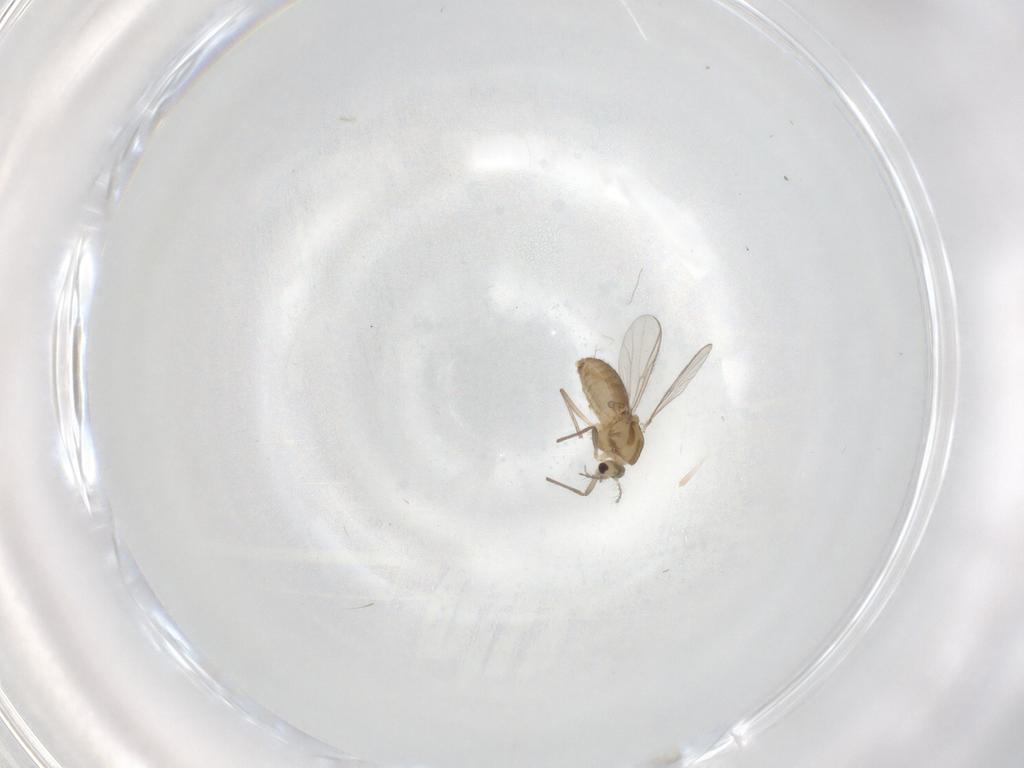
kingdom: Animalia
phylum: Arthropoda
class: Insecta
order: Diptera
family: Chironomidae
